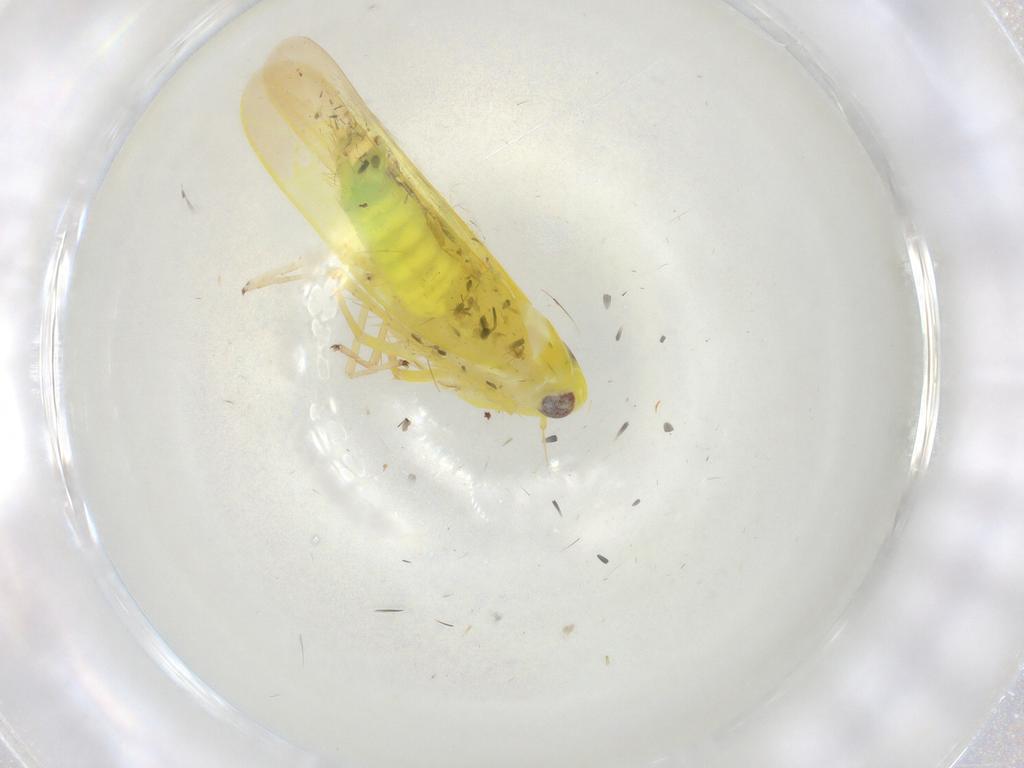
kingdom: Animalia
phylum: Arthropoda
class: Insecta
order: Hemiptera
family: Cicadellidae
